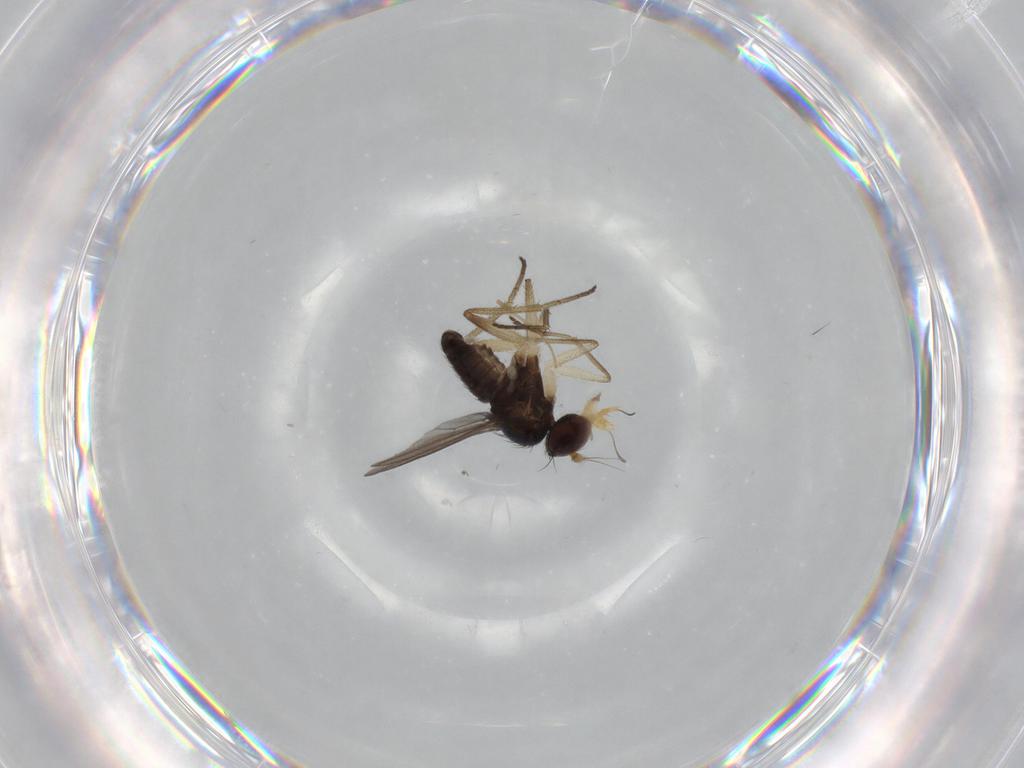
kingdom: Animalia
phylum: Arthropoda
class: Insecta
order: Diptera
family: Dolichopodidae
